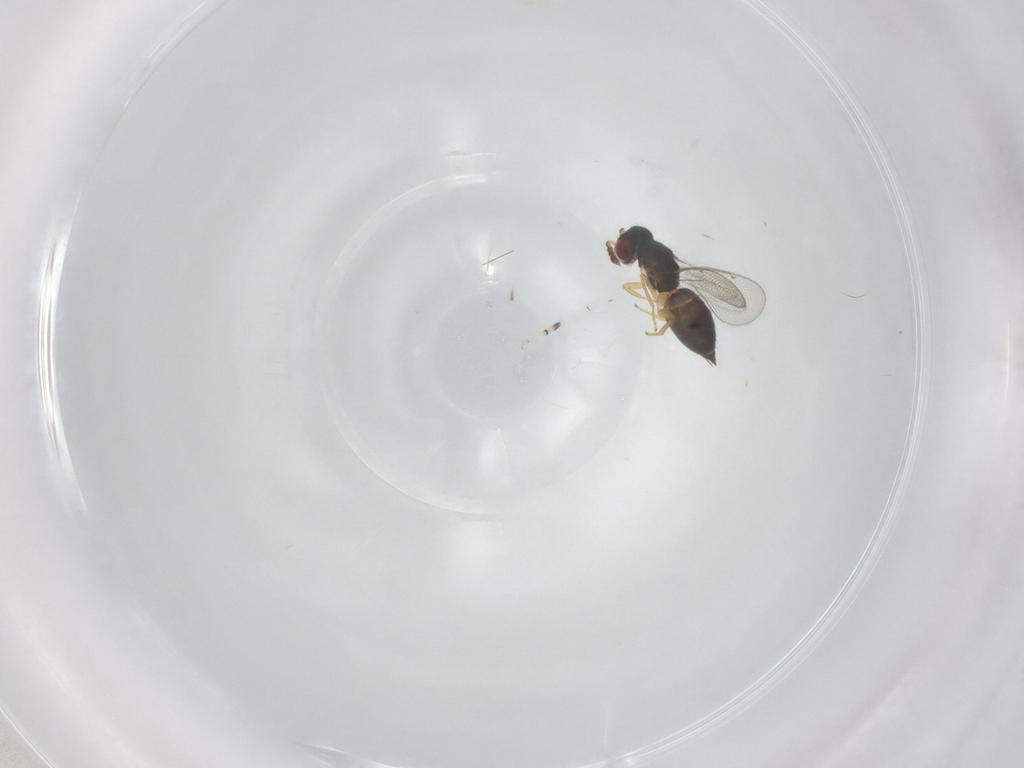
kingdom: Animalia
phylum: Arthropoda
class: Insecta
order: Hymenoptera
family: Eulophidae
